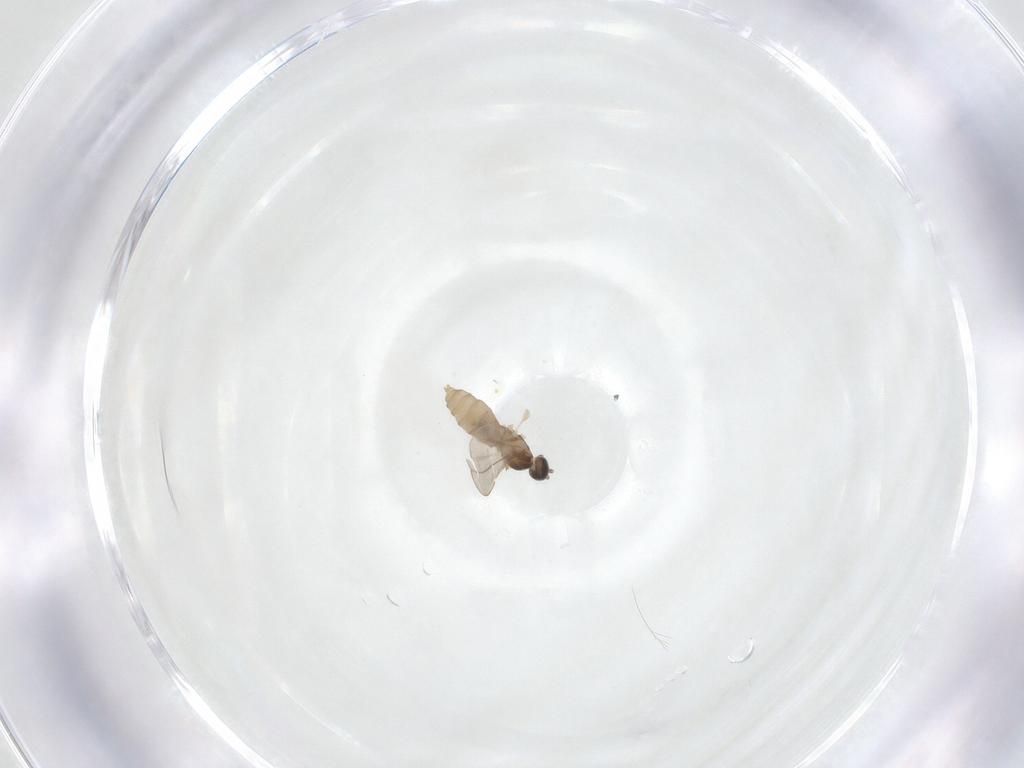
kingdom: Animalia
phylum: Arthropoda
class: Insecta
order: Diptera
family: Cecidomyiidae
